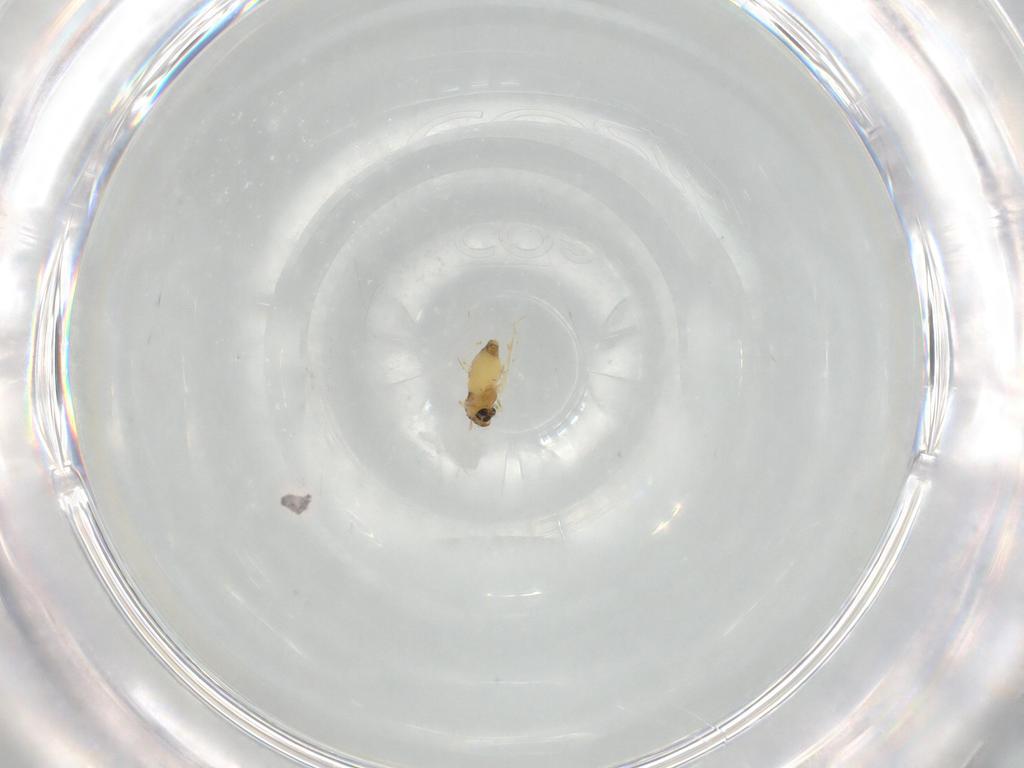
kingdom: Animalia
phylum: Arthropoda
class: Insecta
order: Diptera
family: Chironomidae
